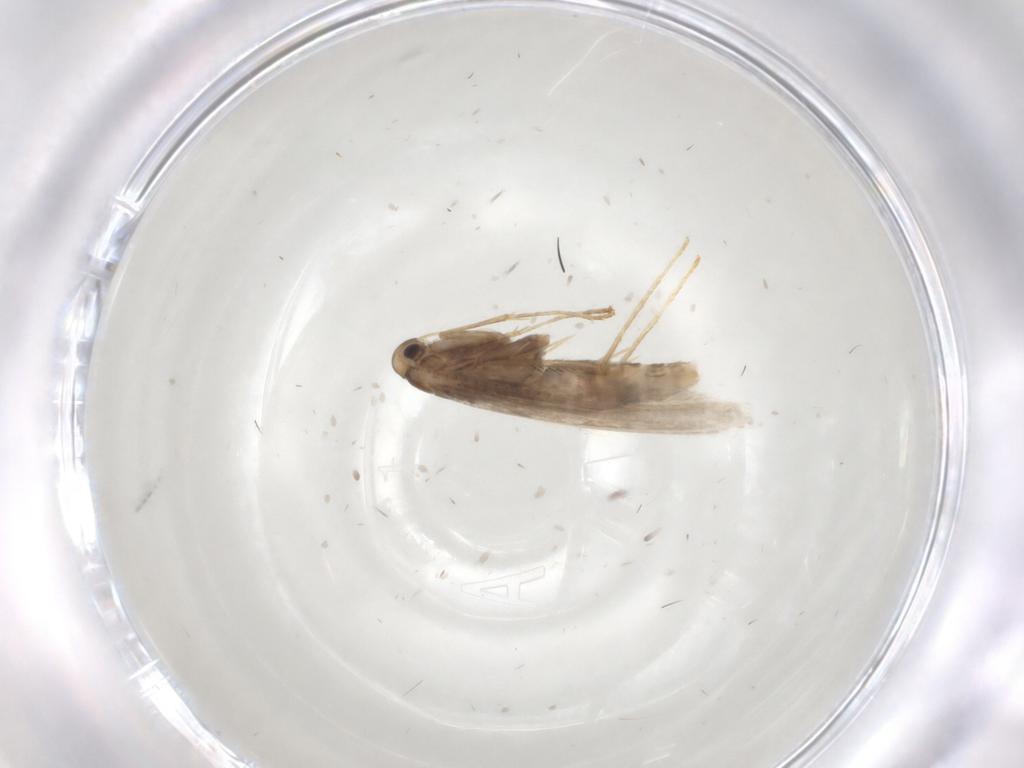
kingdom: Animalia
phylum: Arthropoda
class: Insecta
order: Lepidoptera
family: Gracillariidae
